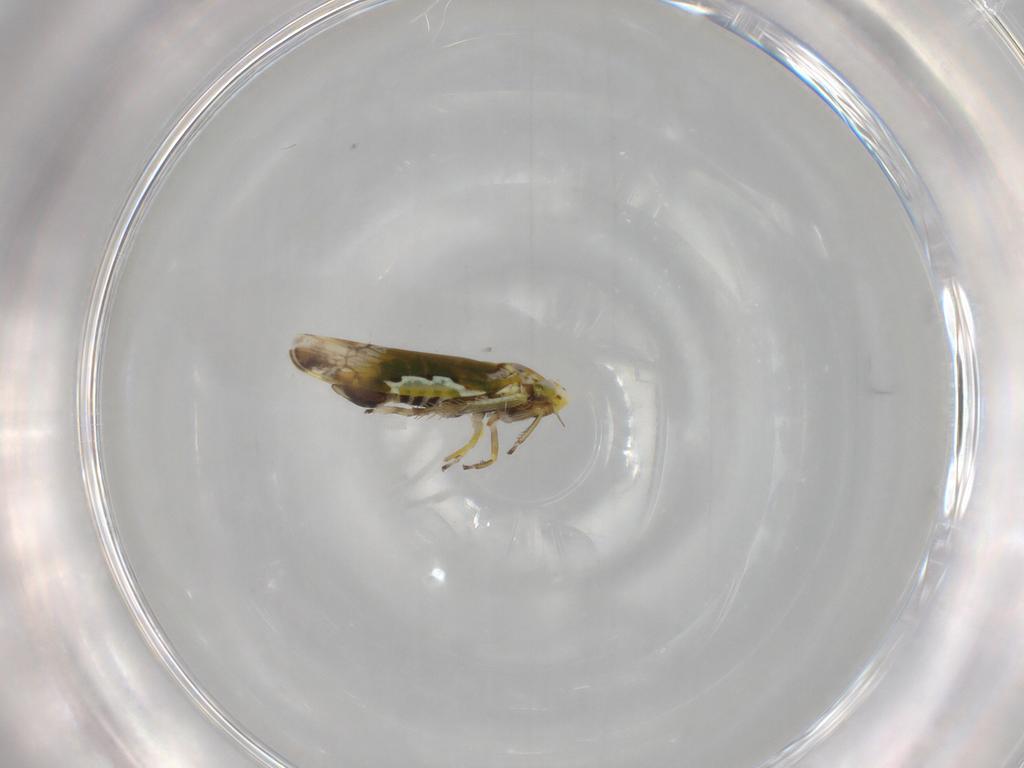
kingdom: Animalia
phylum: Arthropoda
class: Insecta
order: Hemiptera
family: Cicadellidae
